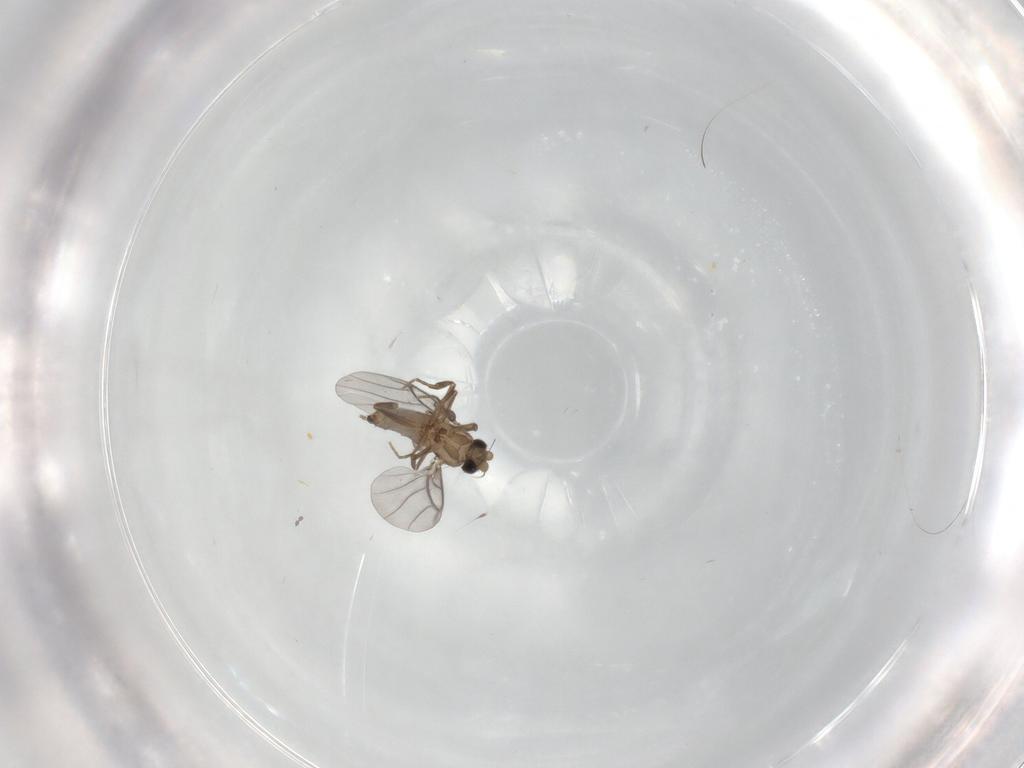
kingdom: Animalia
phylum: Arthropoda
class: Insecta
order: Diptera
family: Cecidomyiidae
